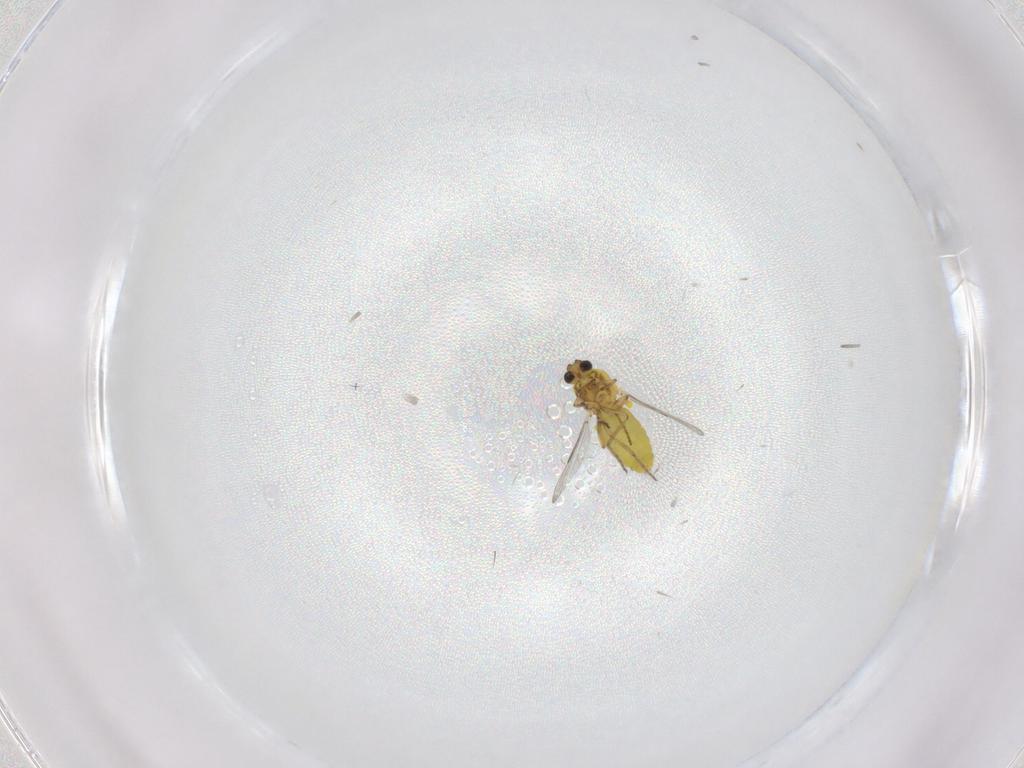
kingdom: Animalia
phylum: Arthropoda
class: Insecta
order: Diptera
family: Ceratopogonidae
